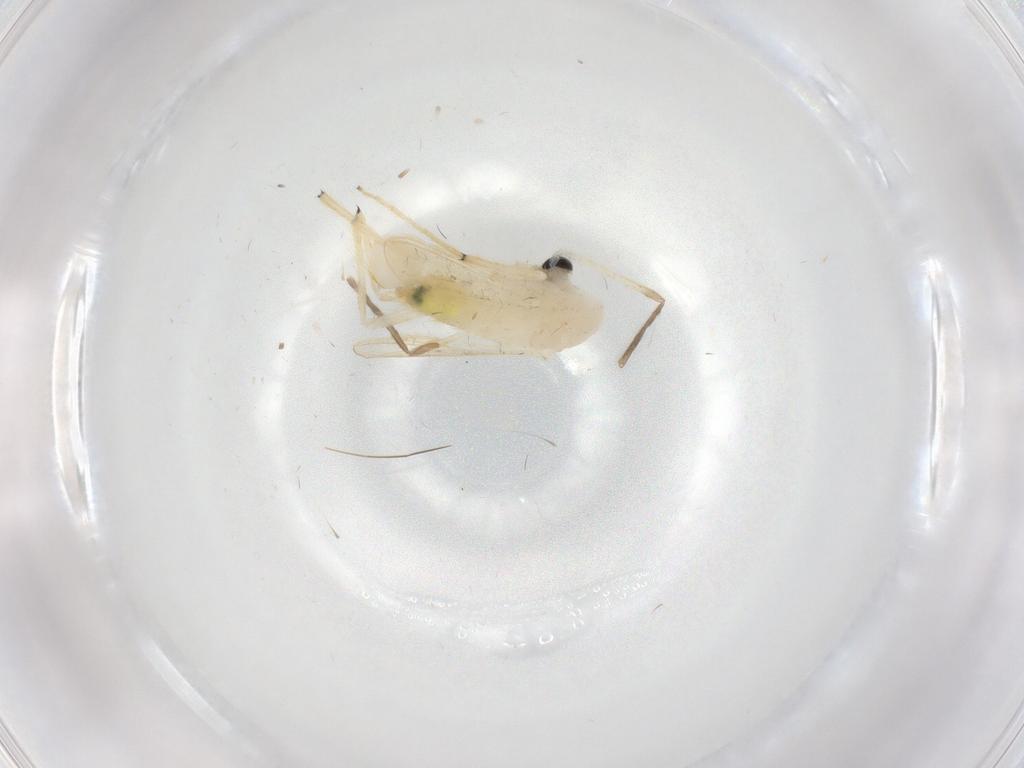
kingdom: Animalia
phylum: Arthropoda
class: Insecta
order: Diptera
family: Chironomidae
